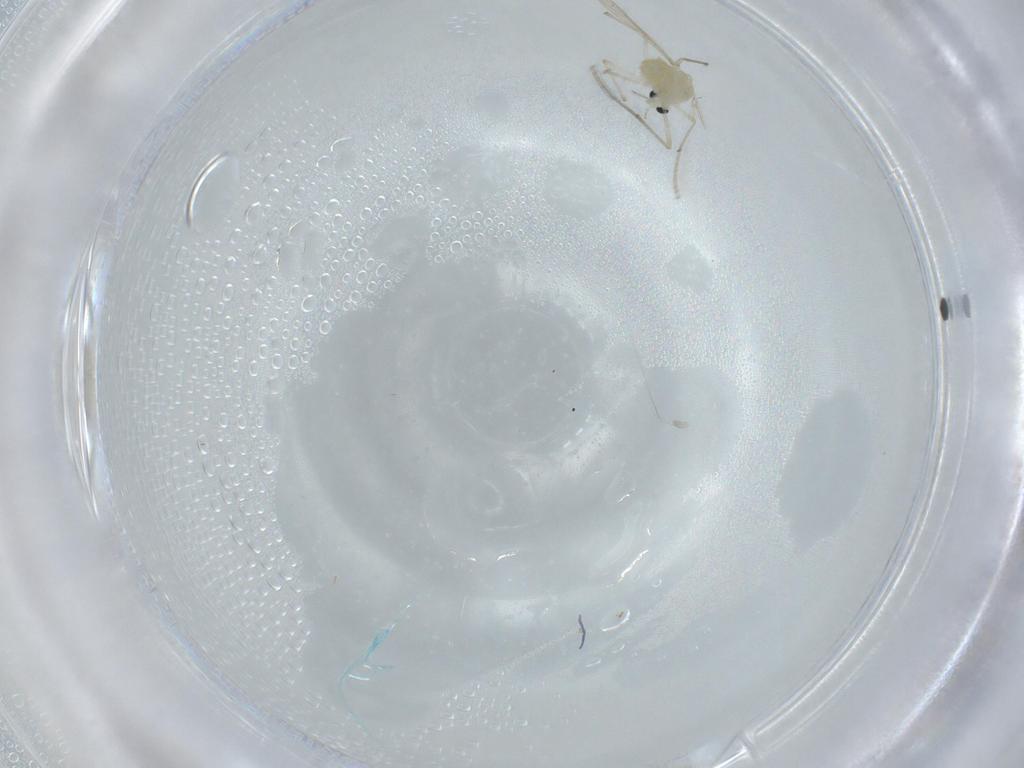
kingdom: Animalia
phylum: Arthropoda
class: Insecta
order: Diptera
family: Chironomidae
